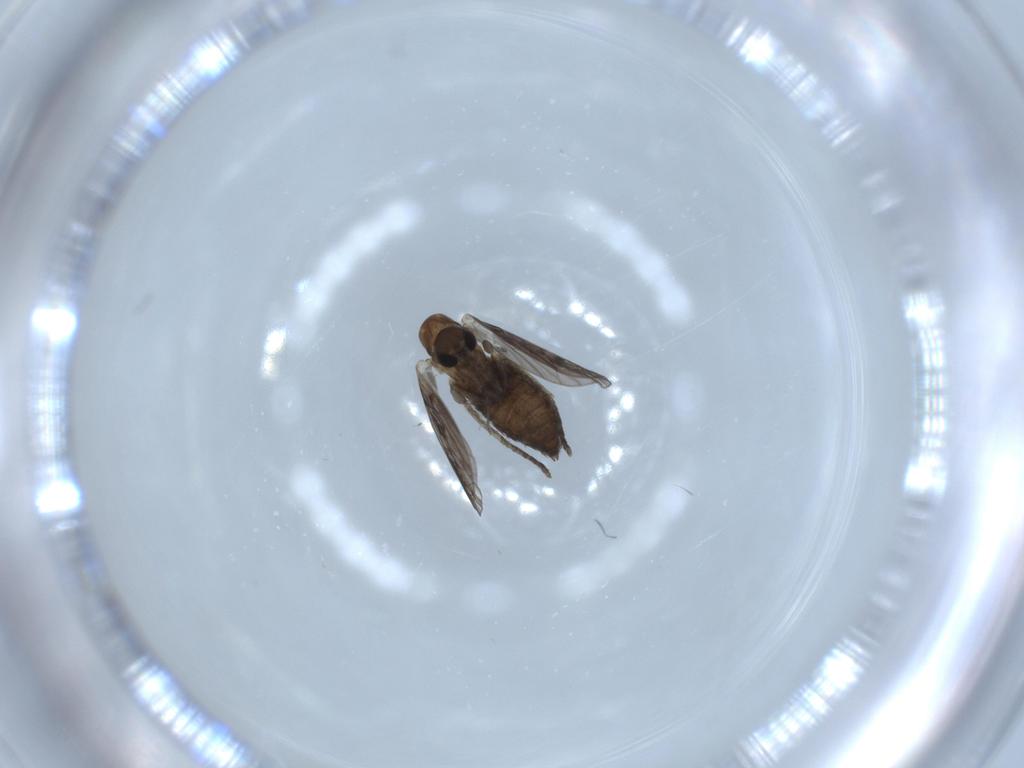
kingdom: Animalia
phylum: Arthropoda
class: Insecta
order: Diptera
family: Psychodidae
